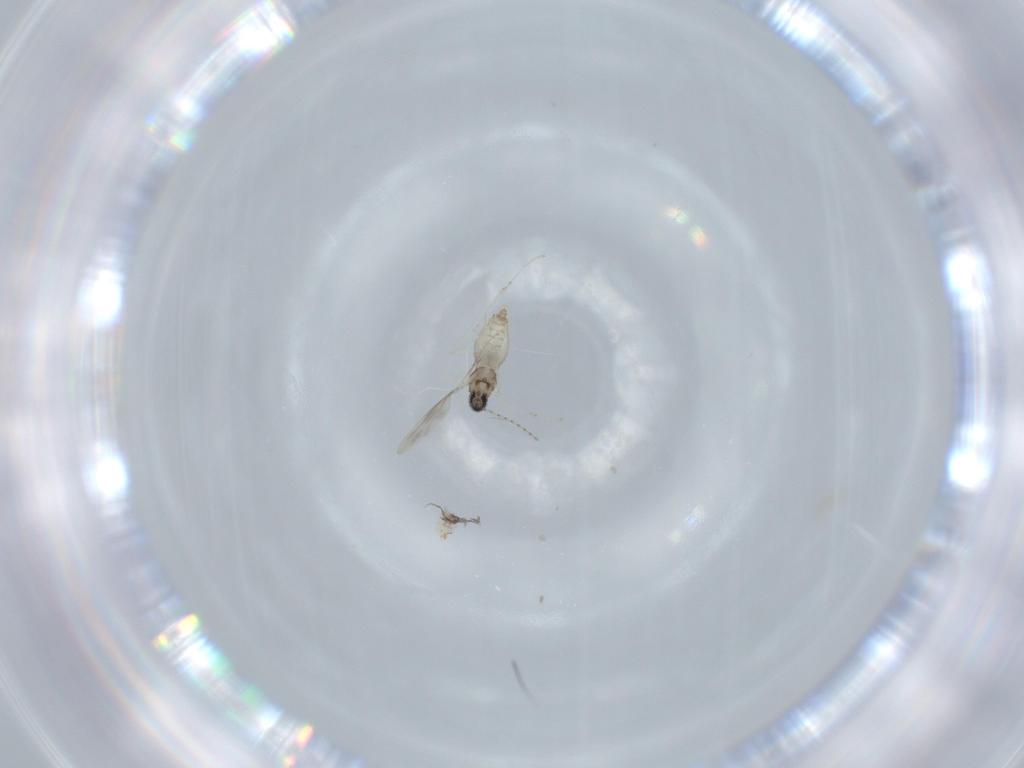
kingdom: Animalia
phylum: Arthropoda
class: Insecta
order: Diptera
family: Cecidomyiidae
